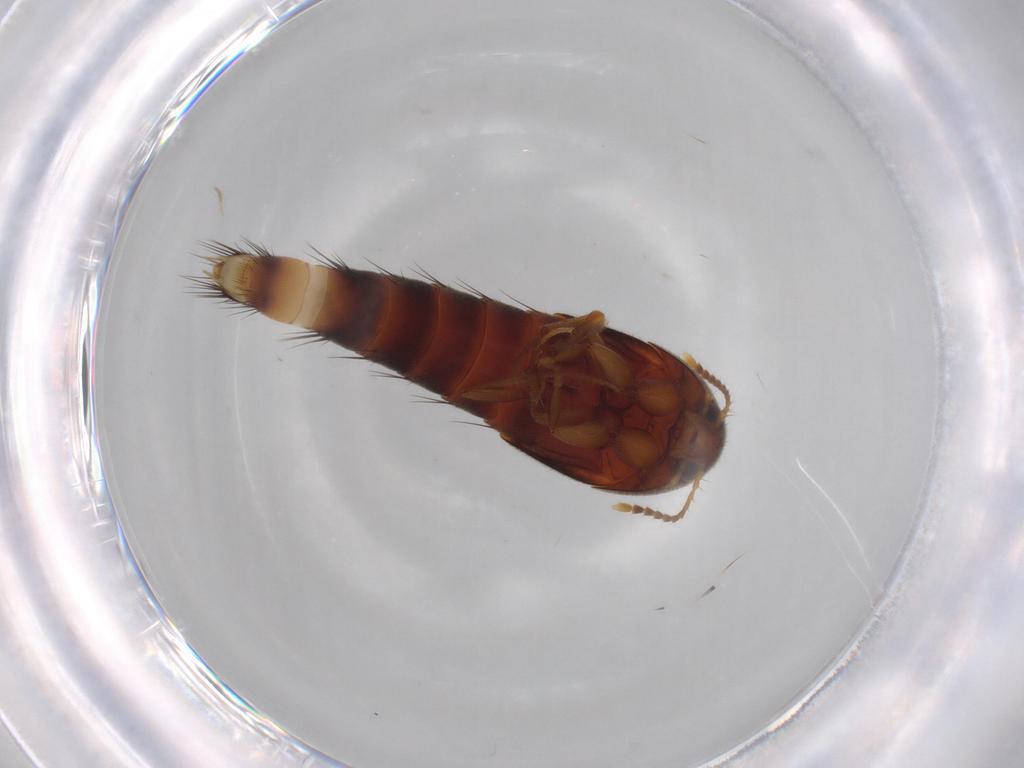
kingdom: Animalia
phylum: Arthropoda
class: Insecta
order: Coleoptera
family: Staphylinidae
